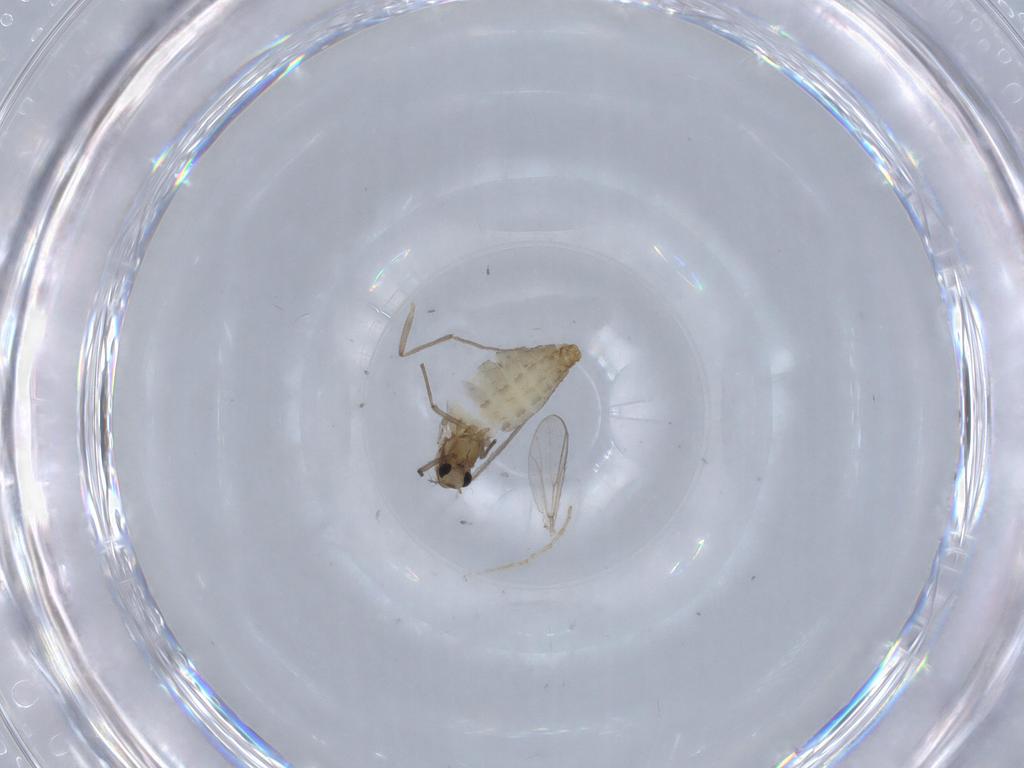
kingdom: Animalia
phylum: Arthropoda
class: Insecta
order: Diptera
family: Chironomidae
